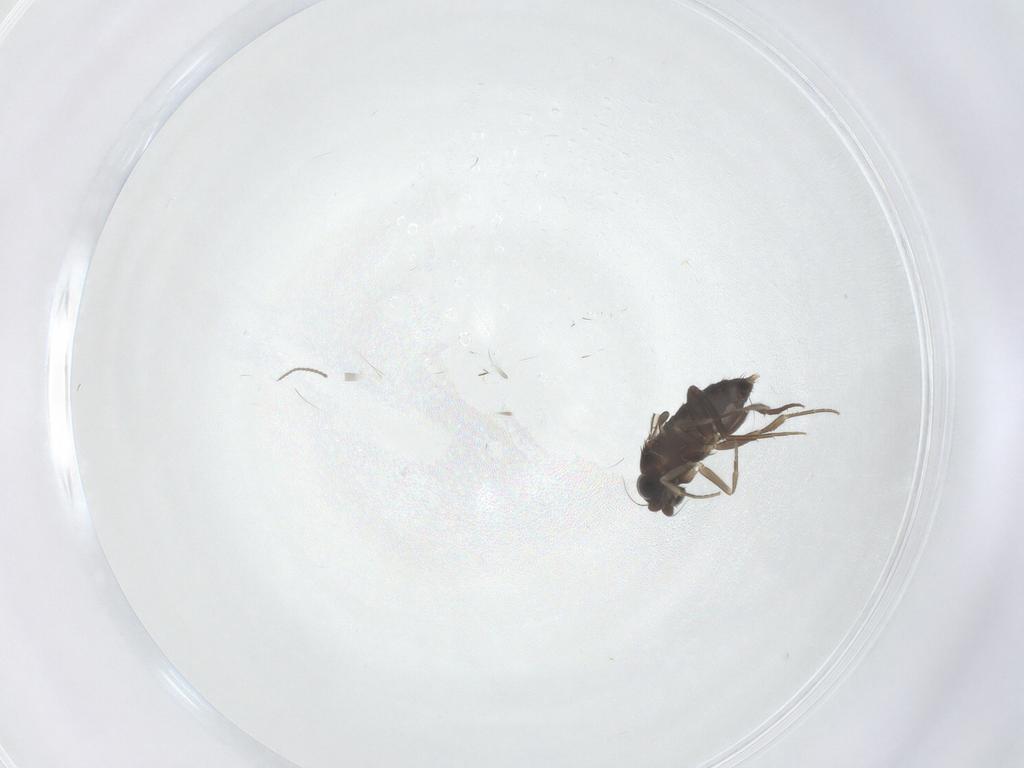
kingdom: Animalia
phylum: Arthropoda
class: Insecta
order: Diptera
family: Phoridae
